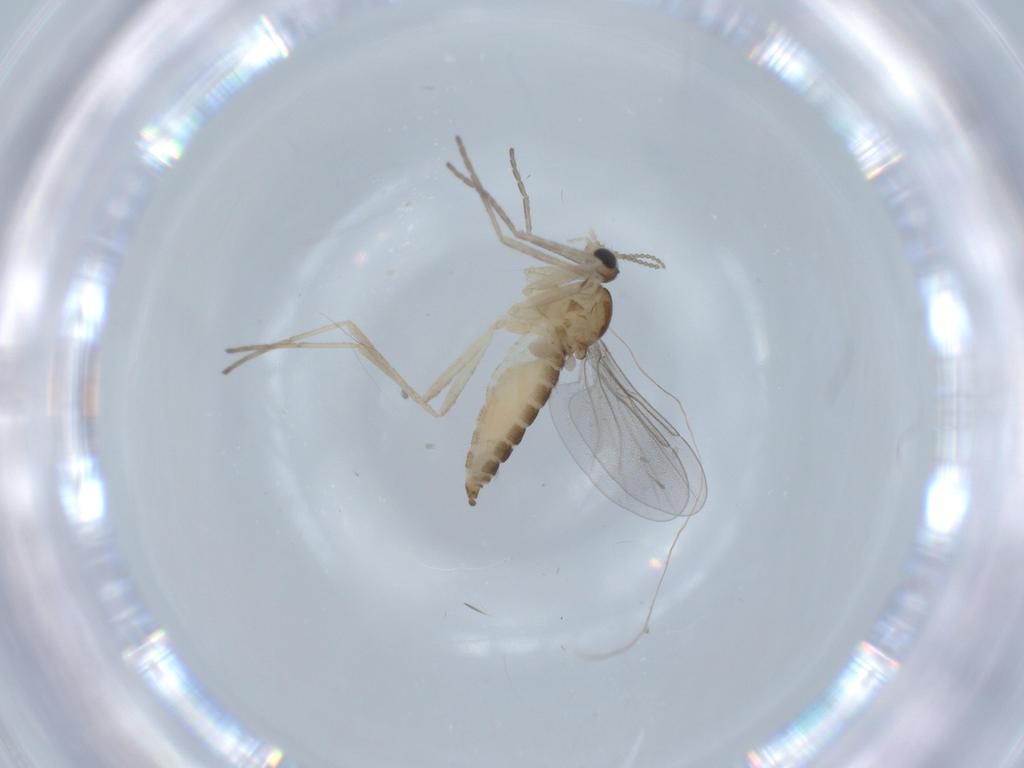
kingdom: Animalia
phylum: Arthropoda
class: Insecta
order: Diptera
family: Cecidomyiidae
